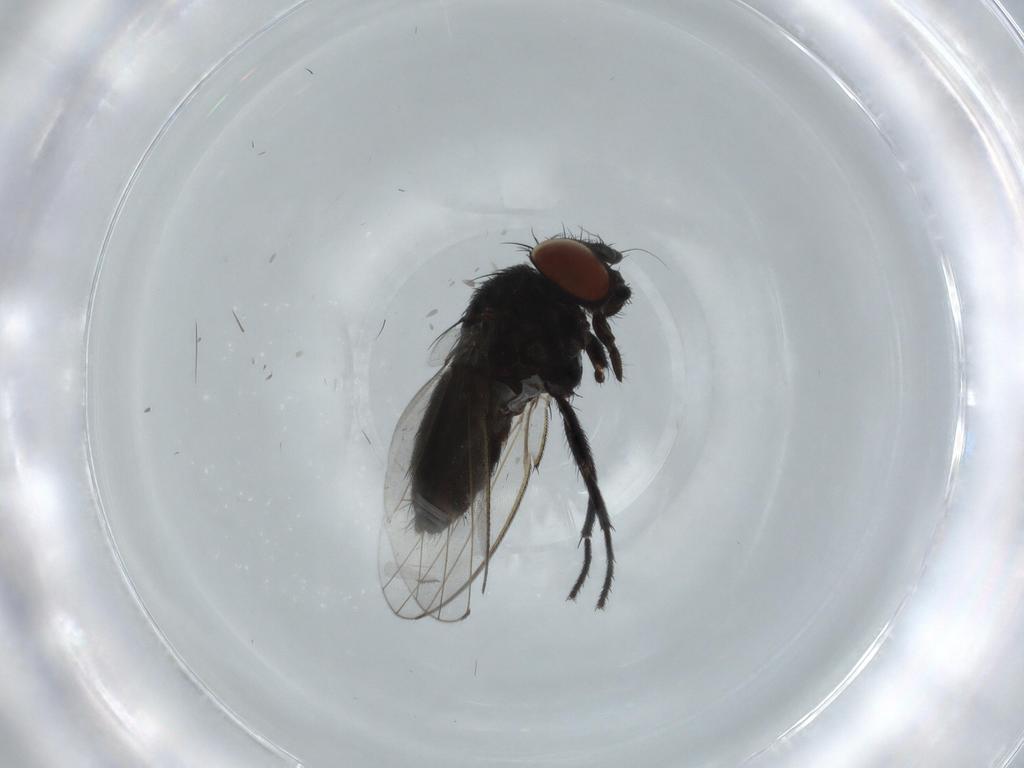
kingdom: Animalia
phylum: Arthropoda
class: Insecta
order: Diptera
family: Milichiidae
